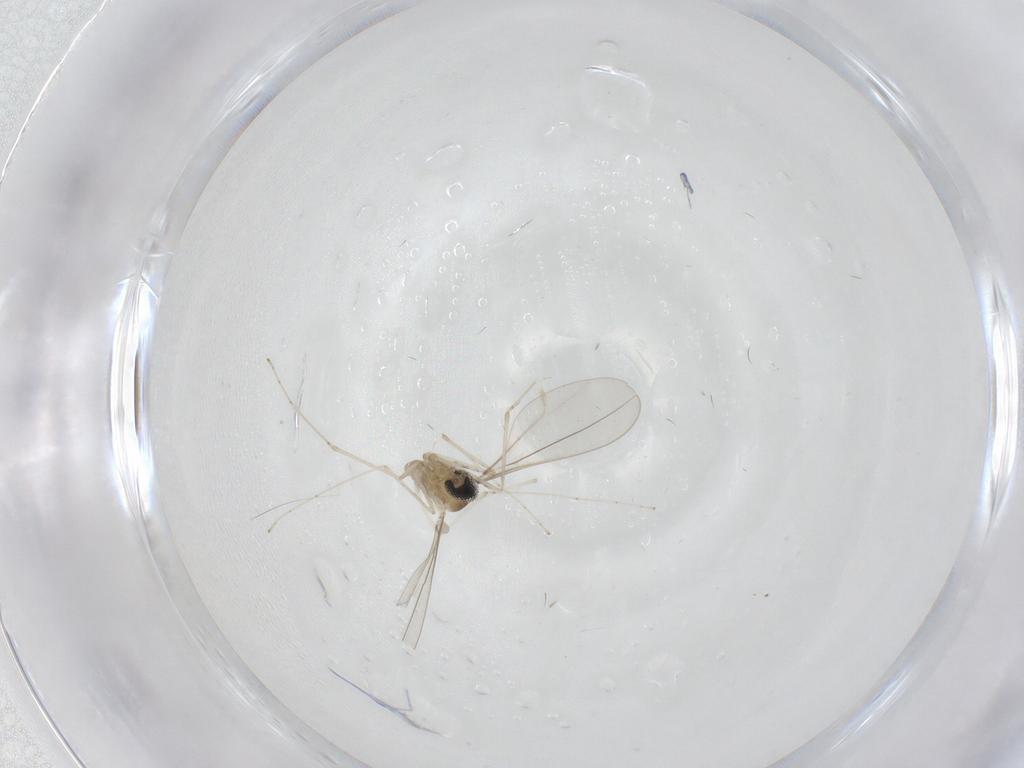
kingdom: Animalia
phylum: Arthropoda
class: Insecta
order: Diptera
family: Cecidomyiidae
